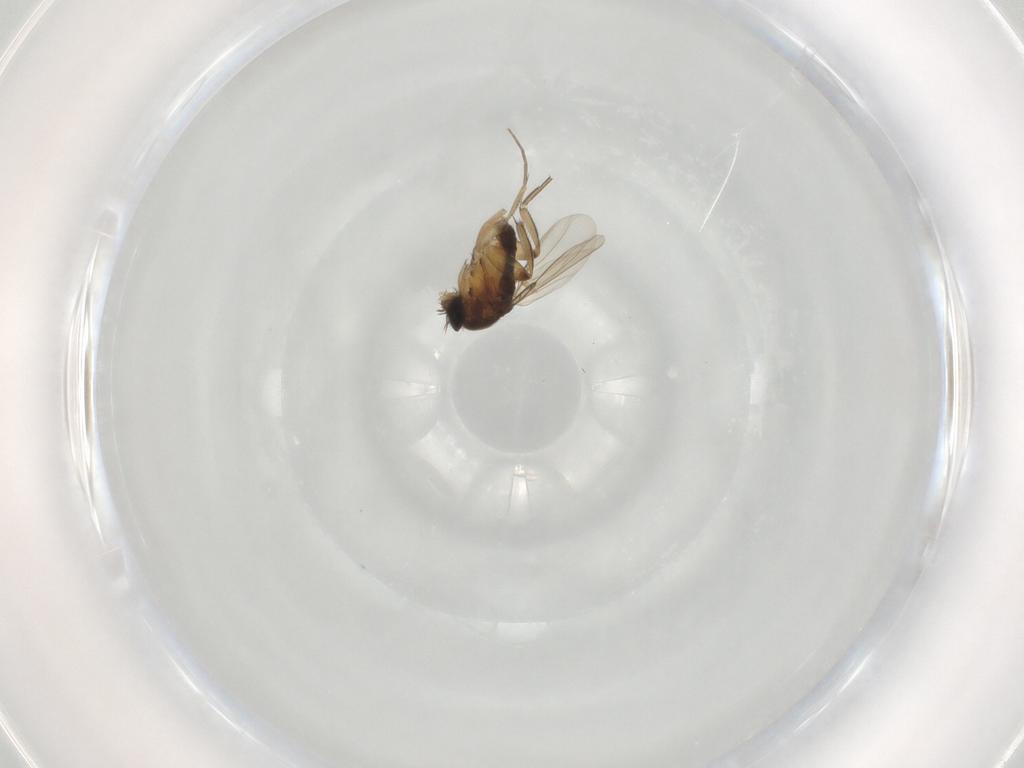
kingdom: Animalia
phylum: Arthropoda
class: Insecta
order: Diptera
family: Phoridae
